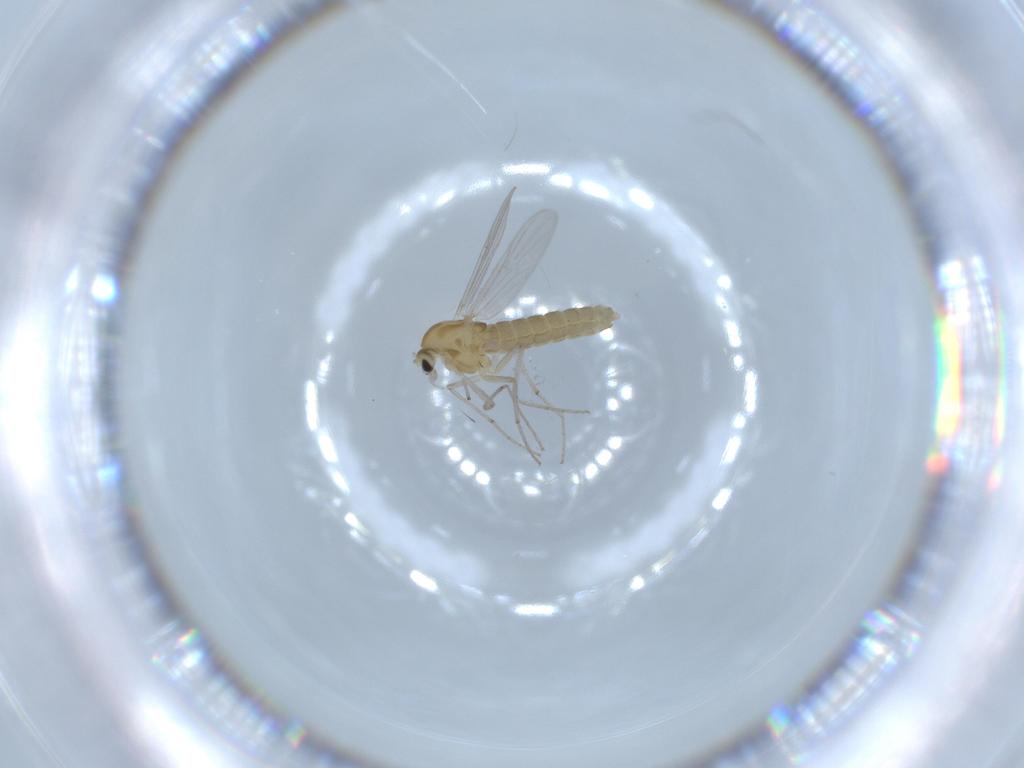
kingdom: Animalia
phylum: Arthropoda
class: Insecta
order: Diptera
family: Chironomidae
